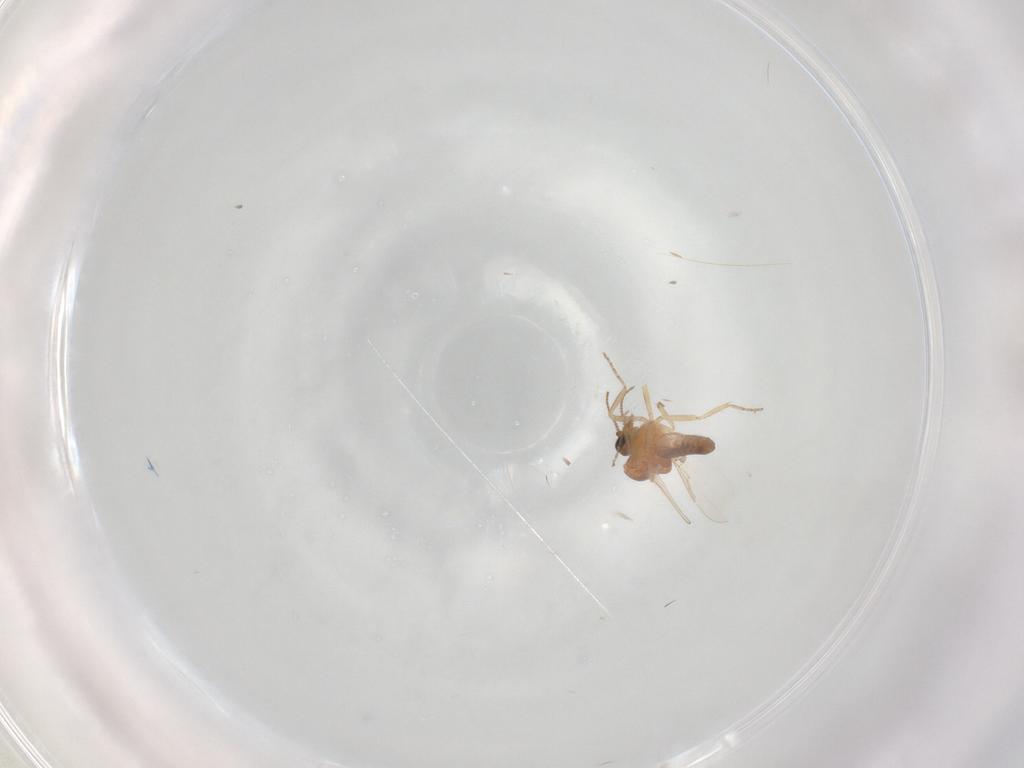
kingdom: Animalia
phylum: Arthropoda
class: Insecta
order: Diptera
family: Ceratopogonidae
